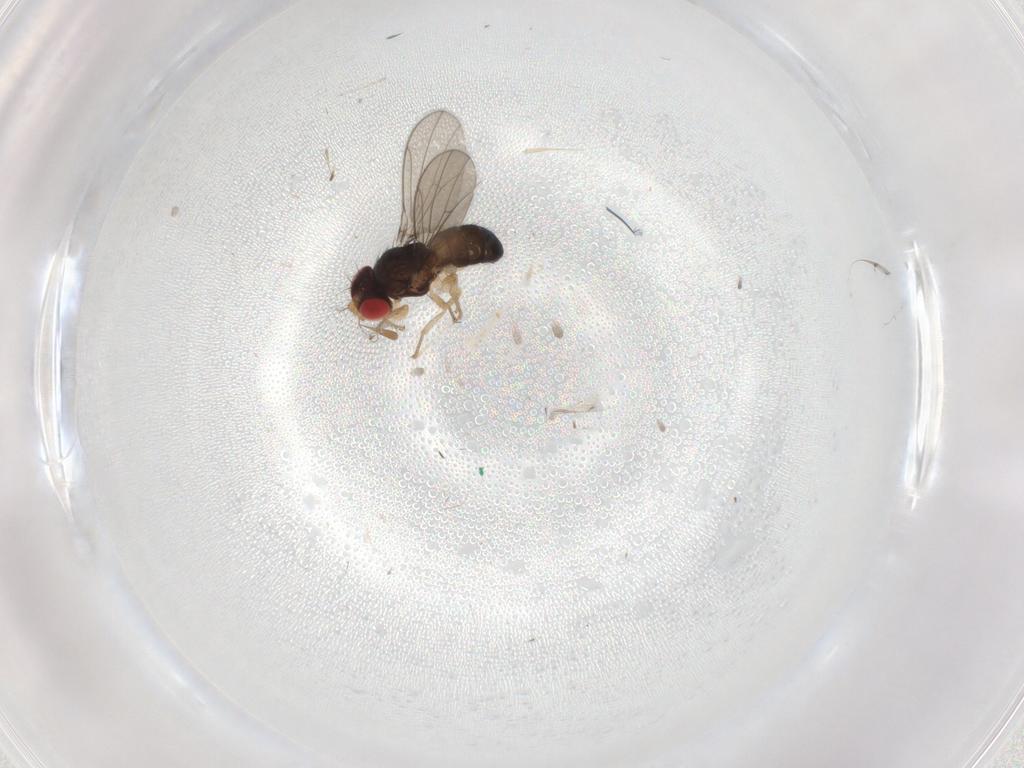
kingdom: Animalia
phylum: Arthropoda
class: Insecta
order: Diptera
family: Drosophilidae
